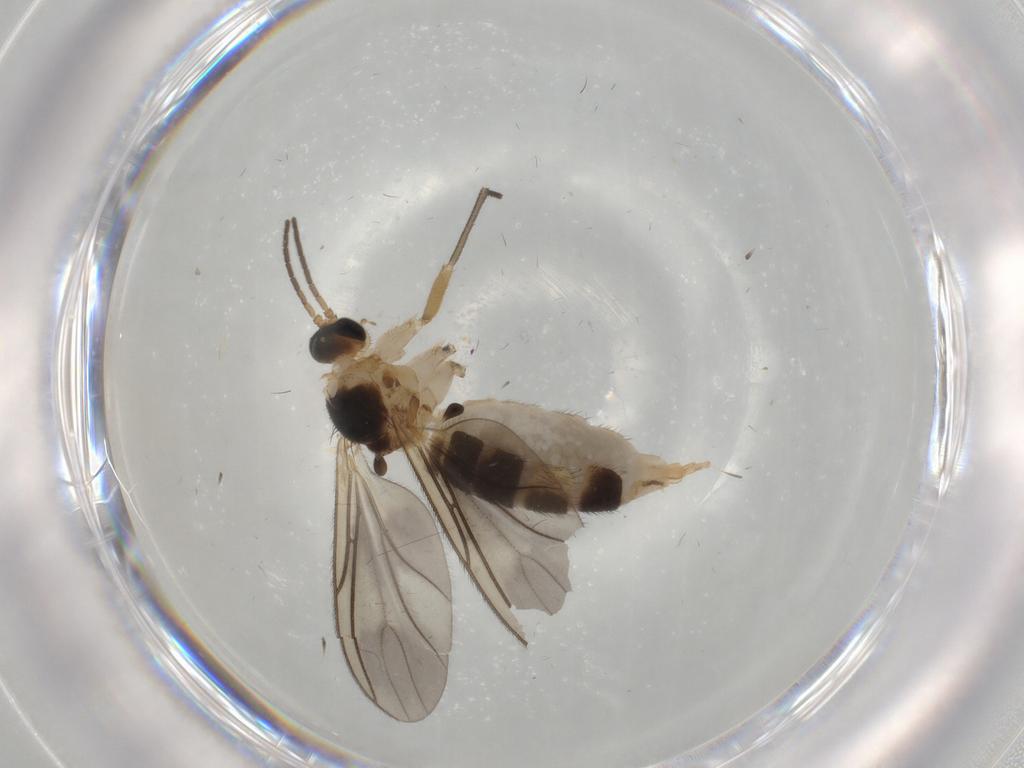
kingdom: Animalia
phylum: Arthropoda
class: Insecta
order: Diptera
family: Sciaridae
